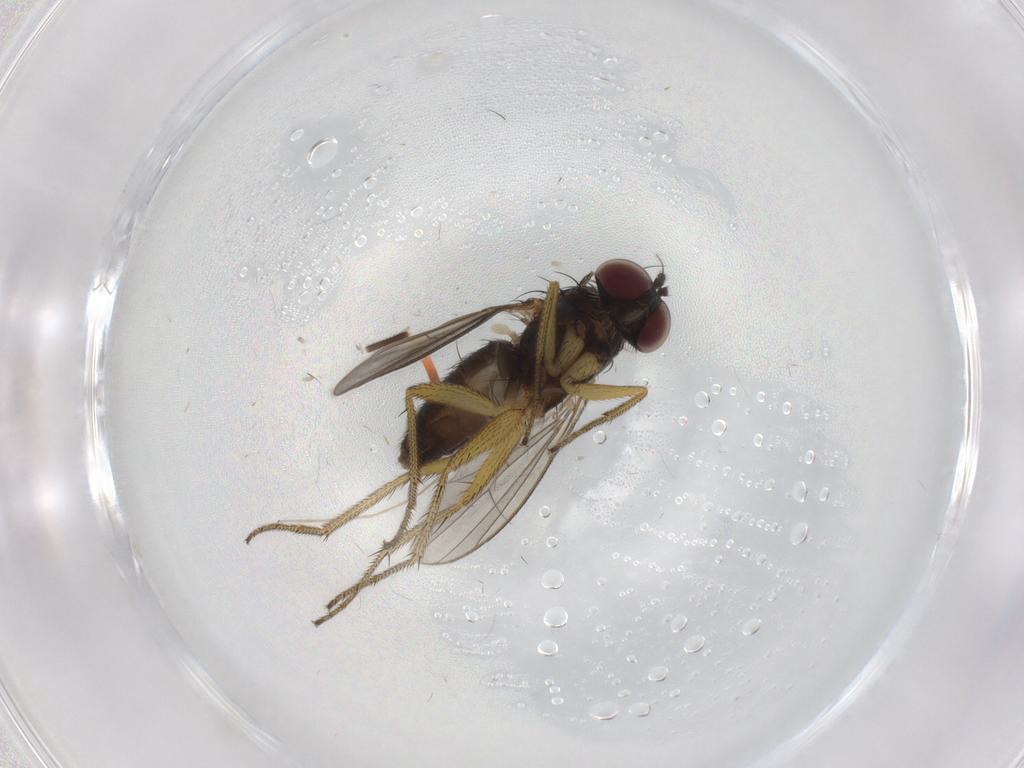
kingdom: Animalia
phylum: Arthropoda
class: Insecta
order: Diptera
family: Dolichopodidae
